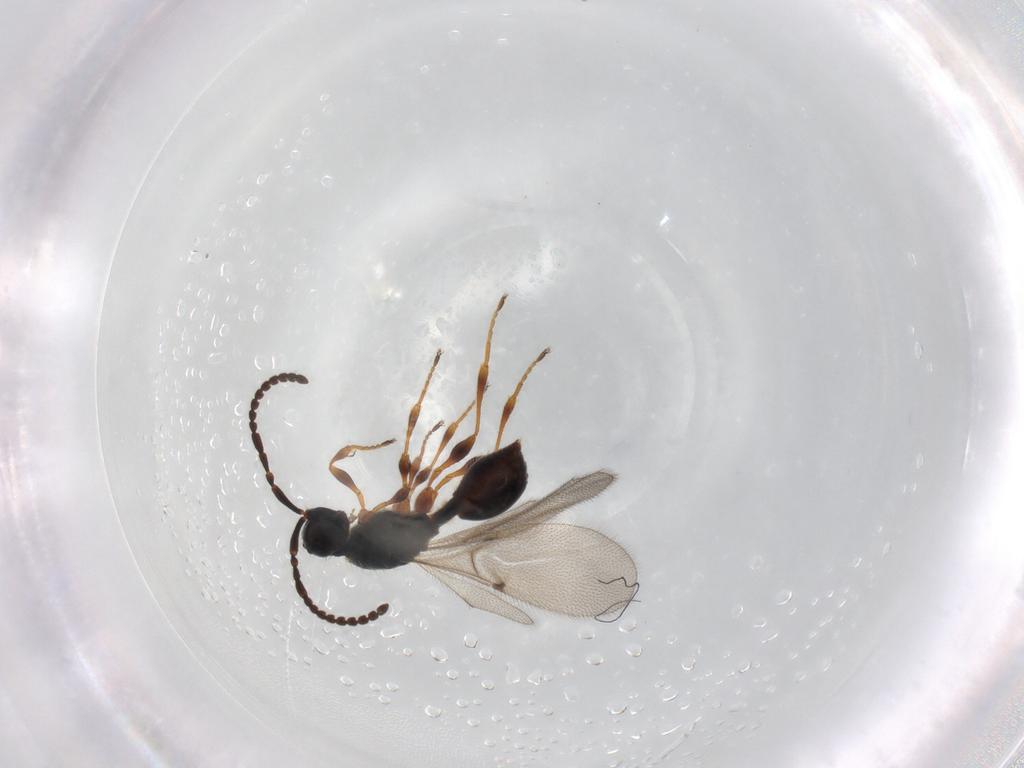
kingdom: Animalia
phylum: Arthropoda
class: Insecta
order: Hymenoptera
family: Diapriidae
